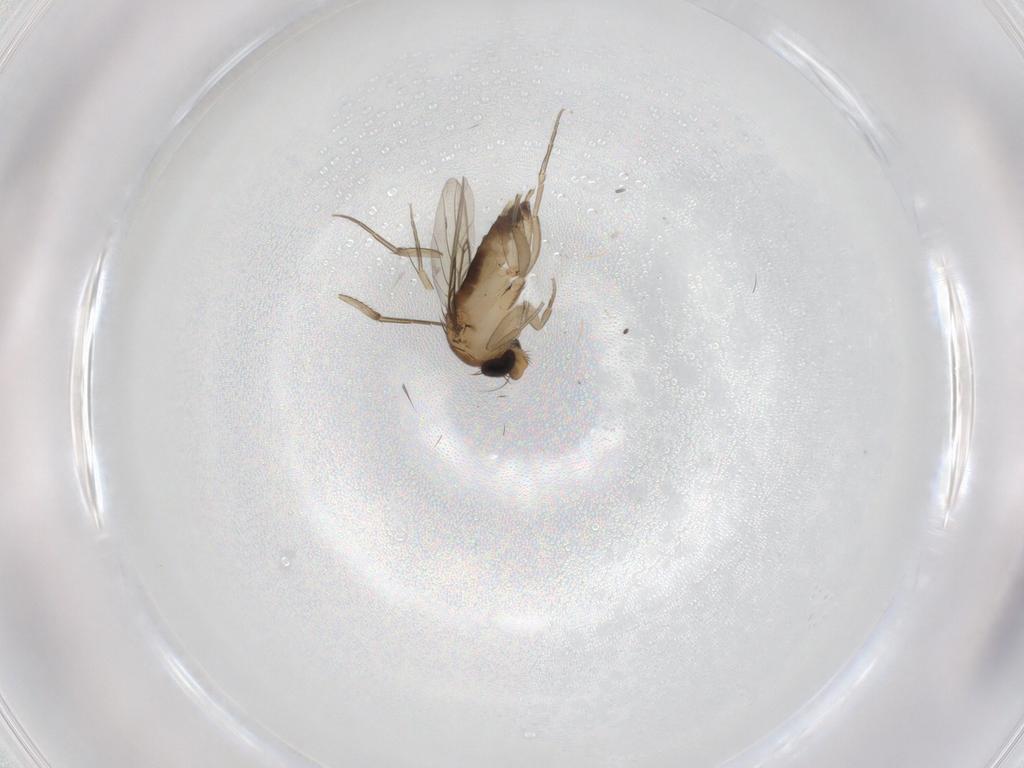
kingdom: Animalia
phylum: Arthropoda
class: Insecta
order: Diptera
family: Phoridae
